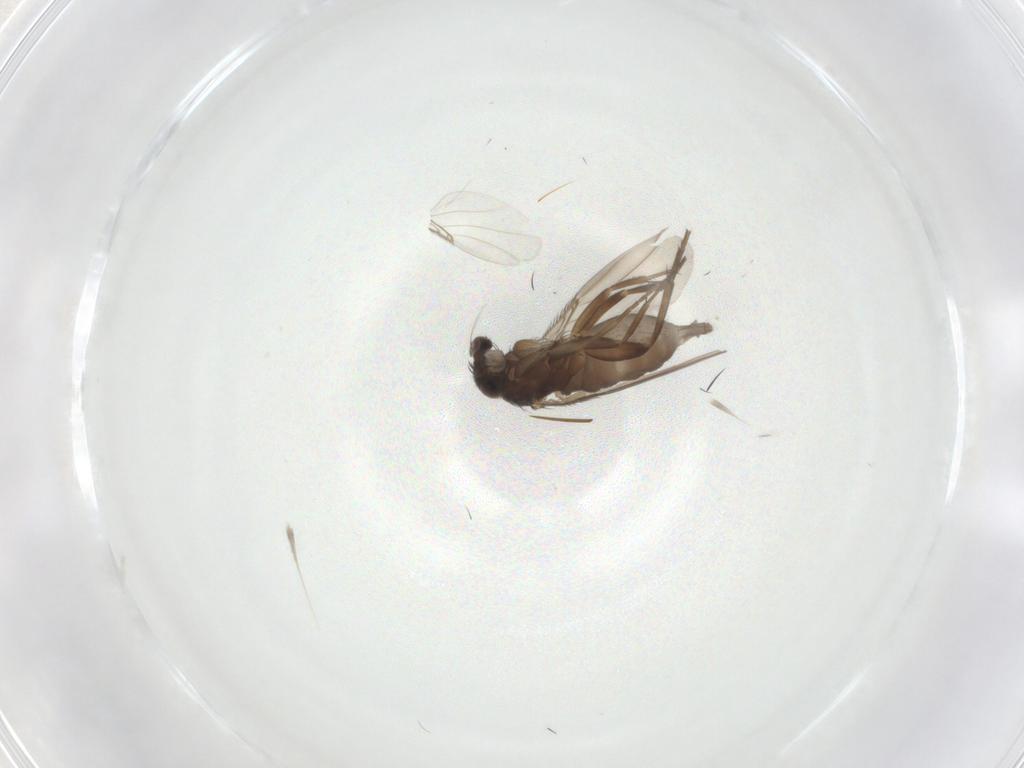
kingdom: Animalia
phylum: Arthropoda
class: Insecta
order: Diptera
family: Phoridae
